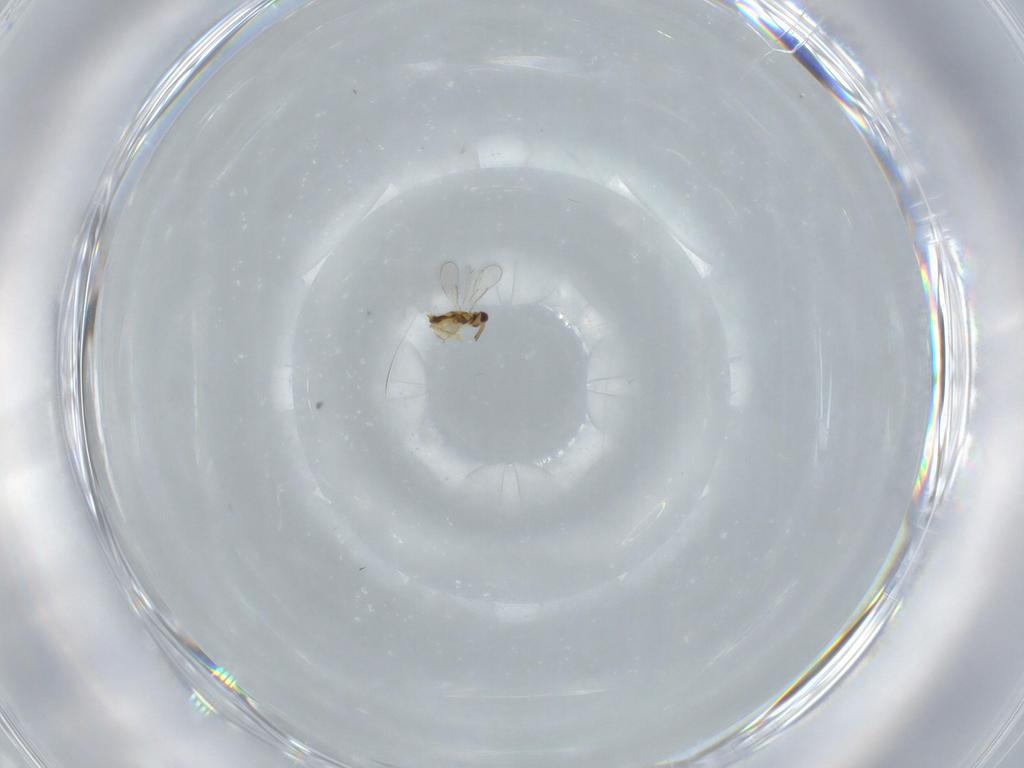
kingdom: Animalia
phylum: Arthropoda
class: Insecta
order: Hymenoptera
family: Aphelinidae
